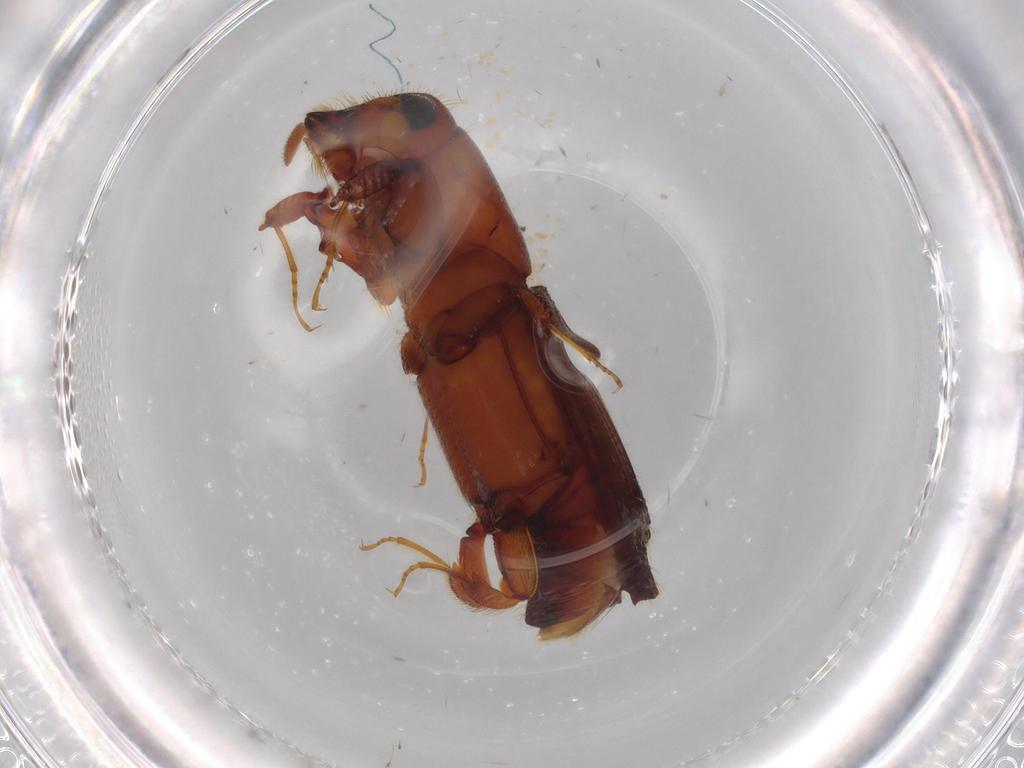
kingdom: Animalia
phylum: Arthropoda
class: Insecta
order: Coleoptera
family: Curculionidae
